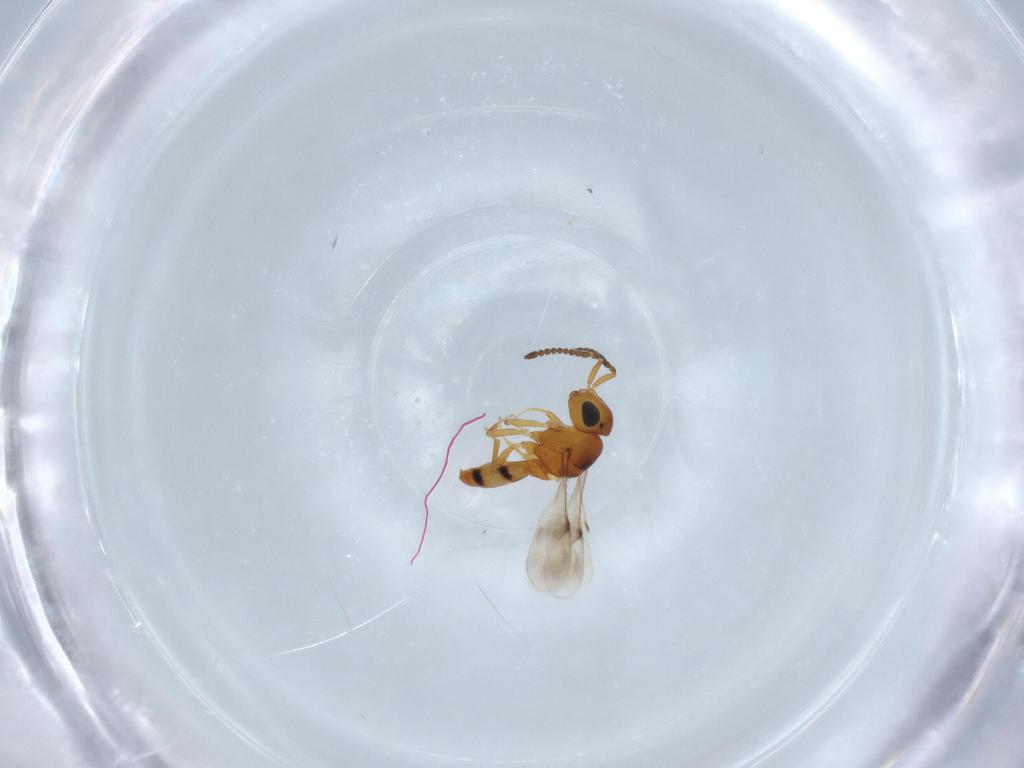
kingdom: Animalia
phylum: Arthropoda
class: Insecta
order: Hymenoptera
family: Scelionidae
